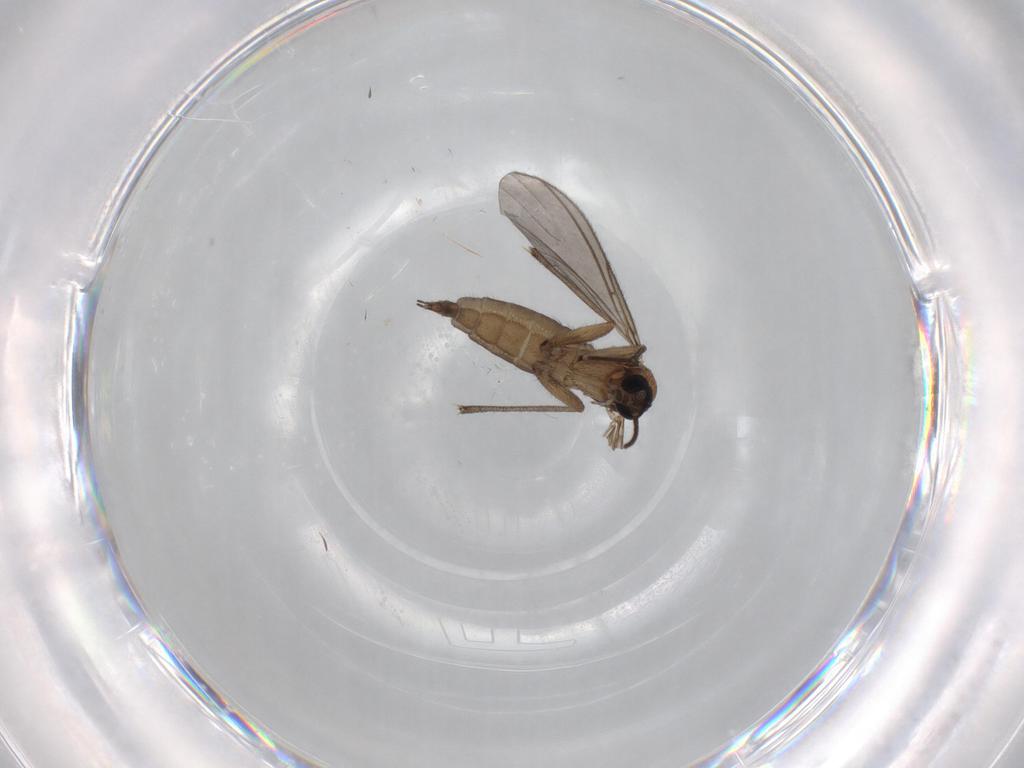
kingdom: Animalia
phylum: Arthropoda
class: Insecta
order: Diptera
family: Sciaridae
